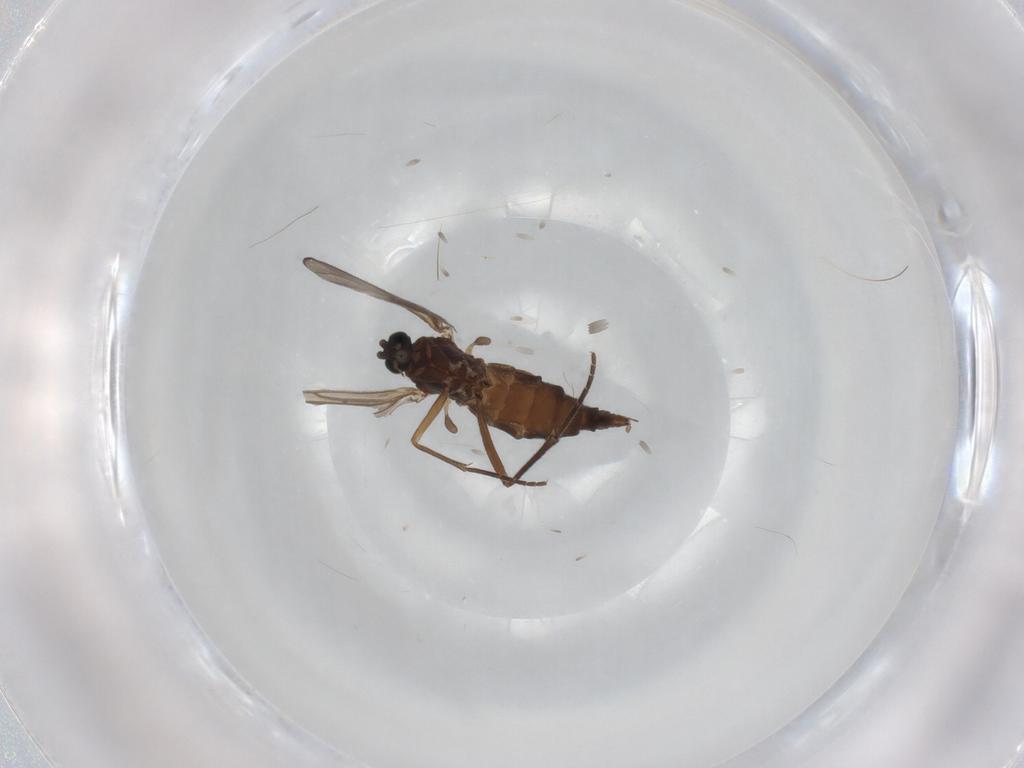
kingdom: Animalia
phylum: Arthropoda
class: Insecta
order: Diptera
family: Sciaridae
